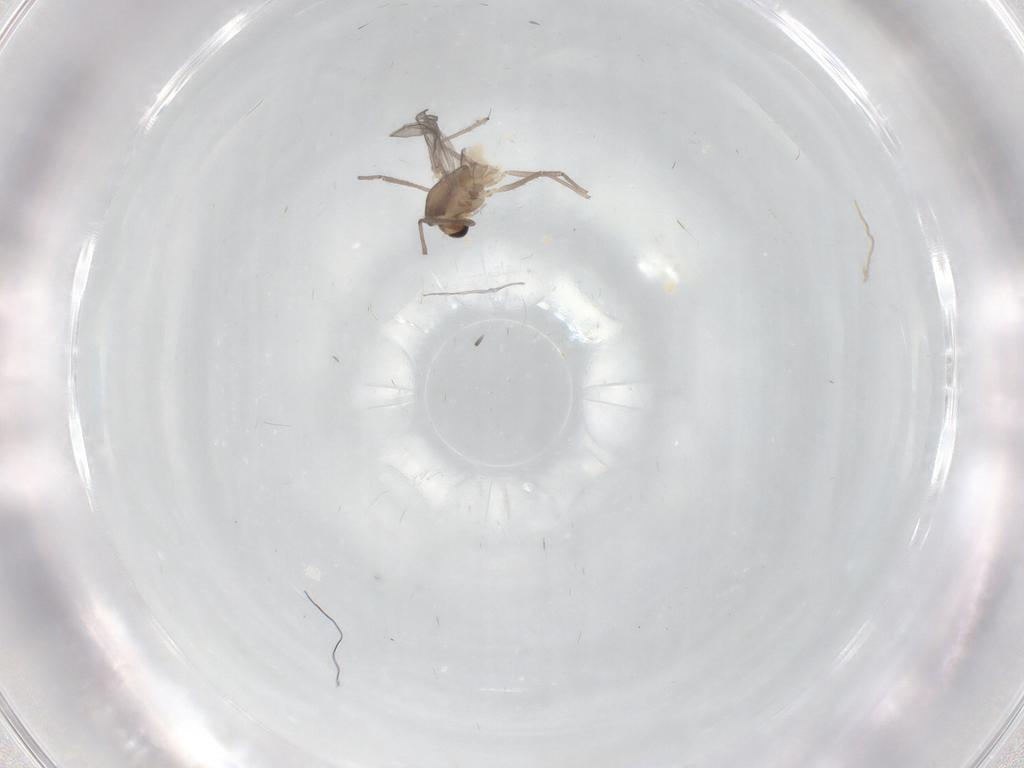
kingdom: Animalia
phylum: Arthropoda
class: Insecta
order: Diptera
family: Chironomidae
